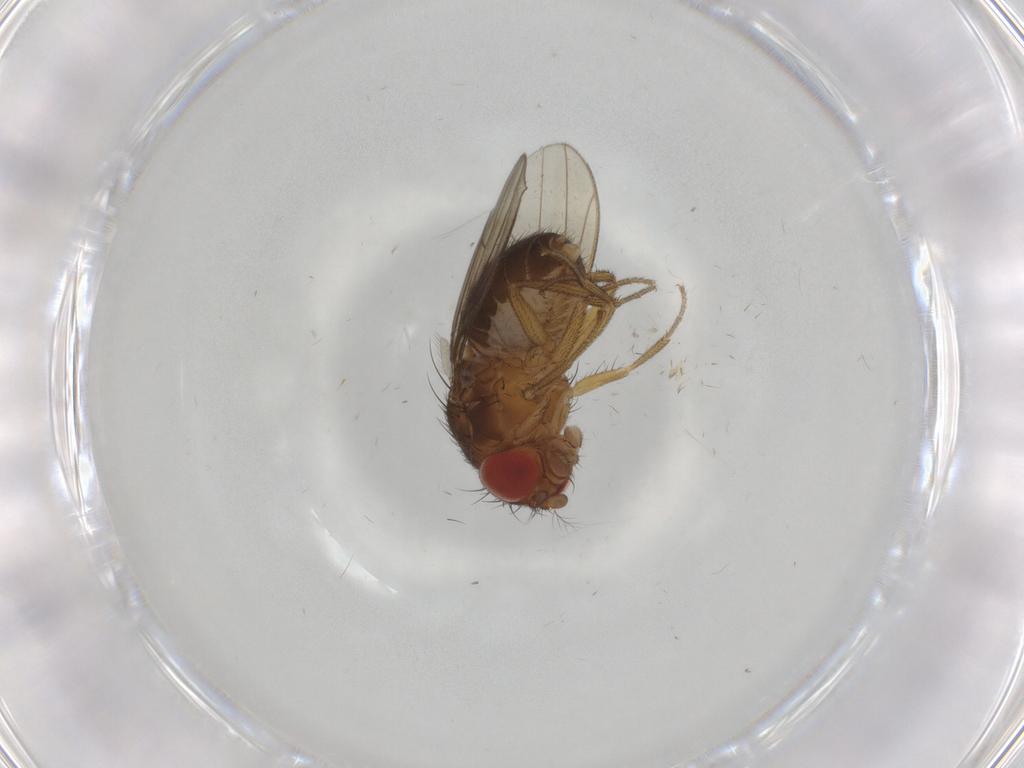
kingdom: Animalia
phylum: Arthropoda
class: Insecta
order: Diptera
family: Drosophilidae
